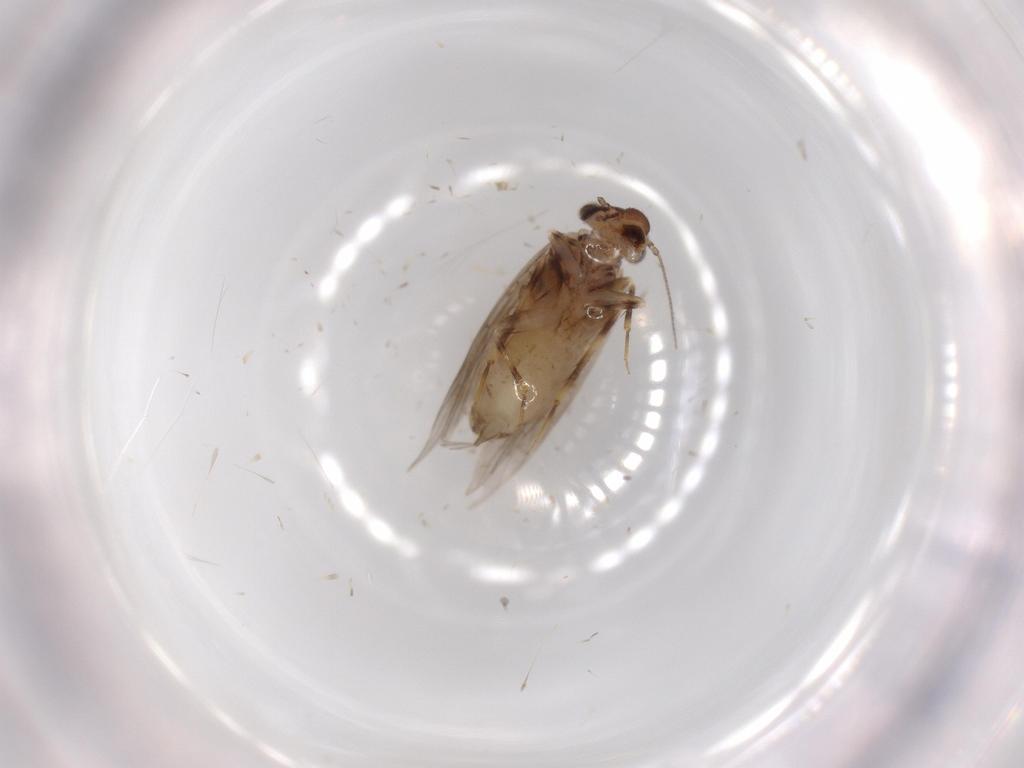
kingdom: Animalia
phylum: Arthropoda
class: Insecta
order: Psocodea
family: Lepidopsocidae
